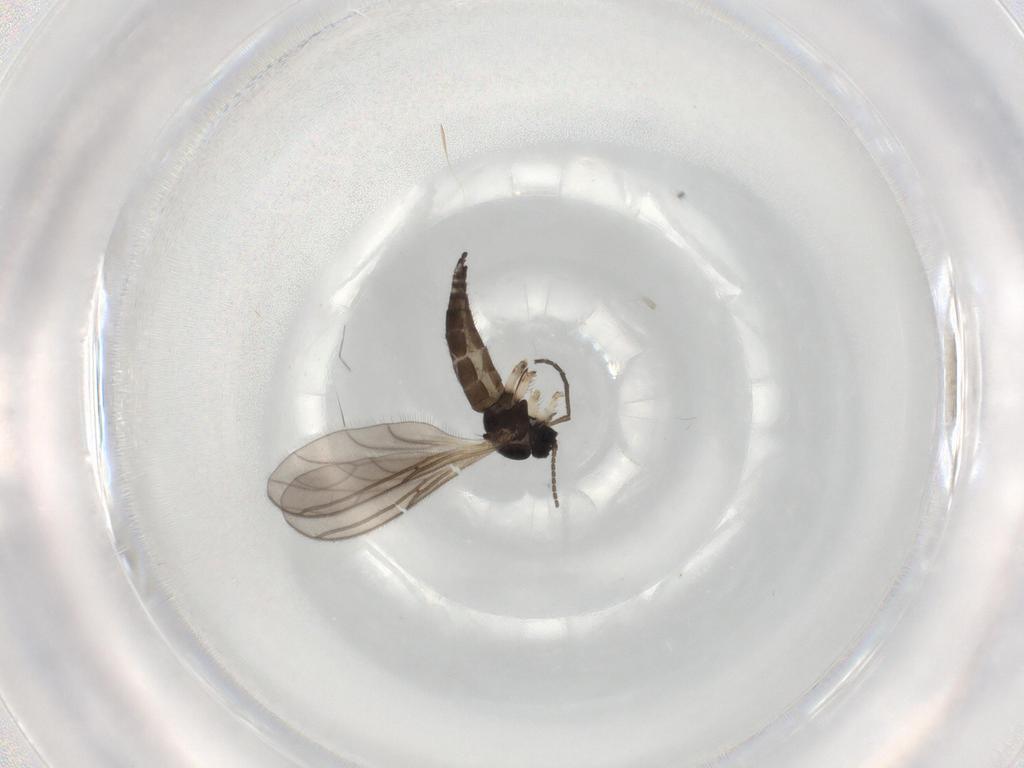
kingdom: Animalia
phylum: Arthropoda
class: Insecta
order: Diptera
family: Sciaridae
